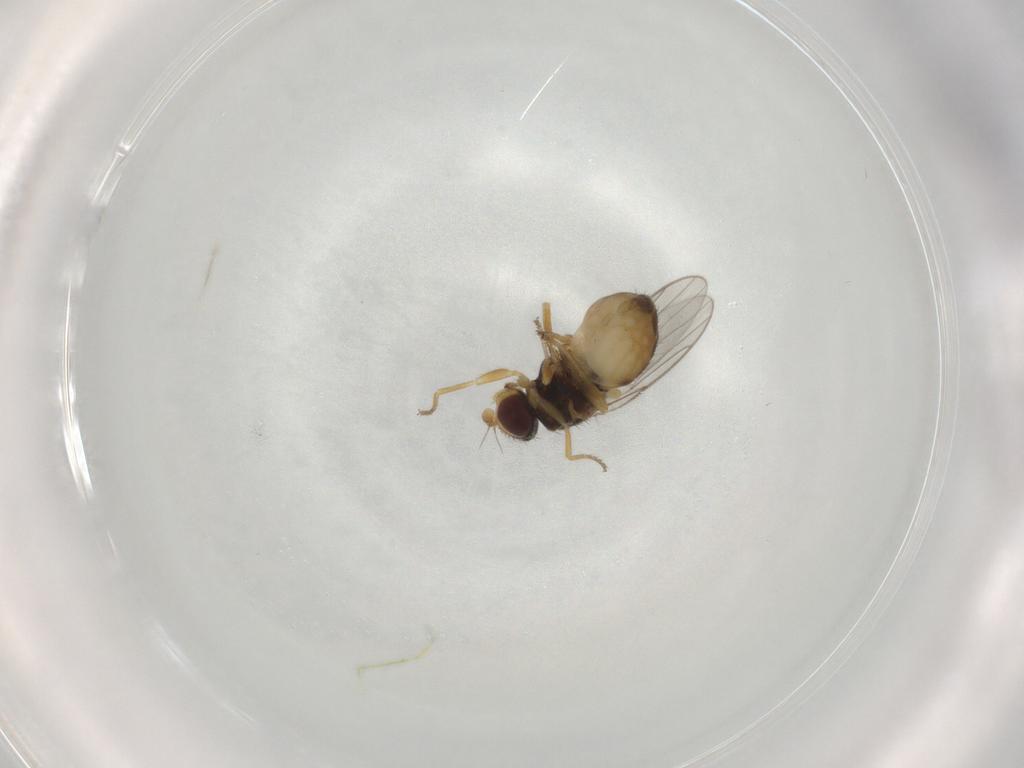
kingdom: Animalia
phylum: Arthropoda
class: Insecta
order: Diptera
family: Chloropidae
